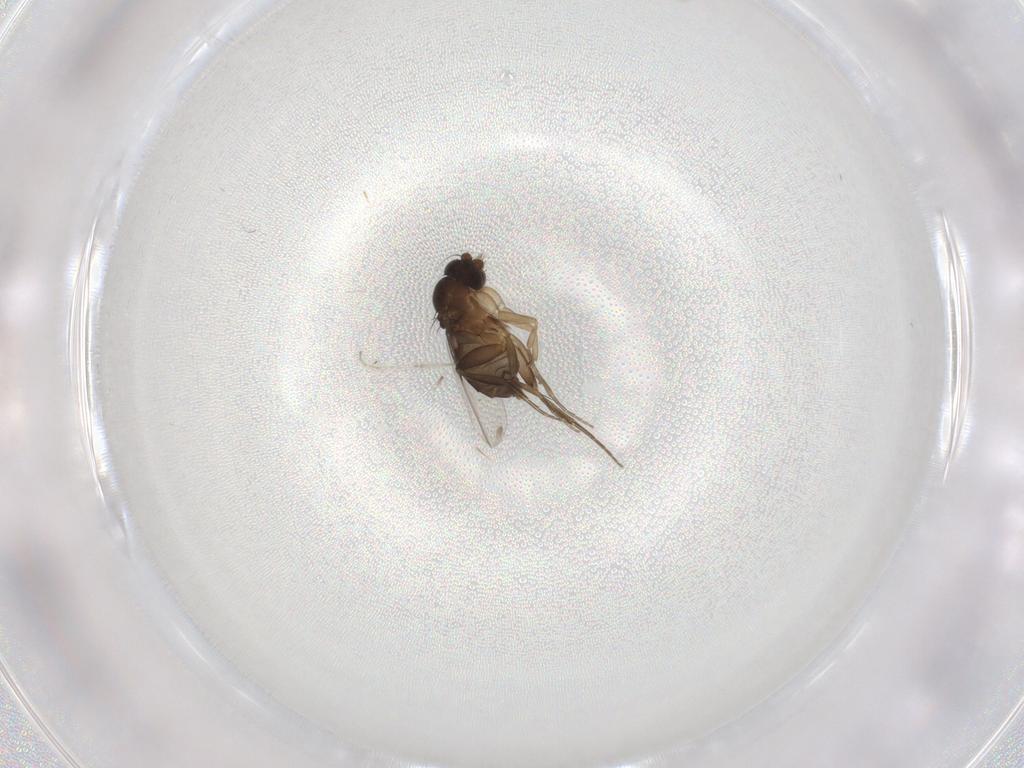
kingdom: Animalia
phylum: Arthropoda
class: Insecta
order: Diptera
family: Phoridae
